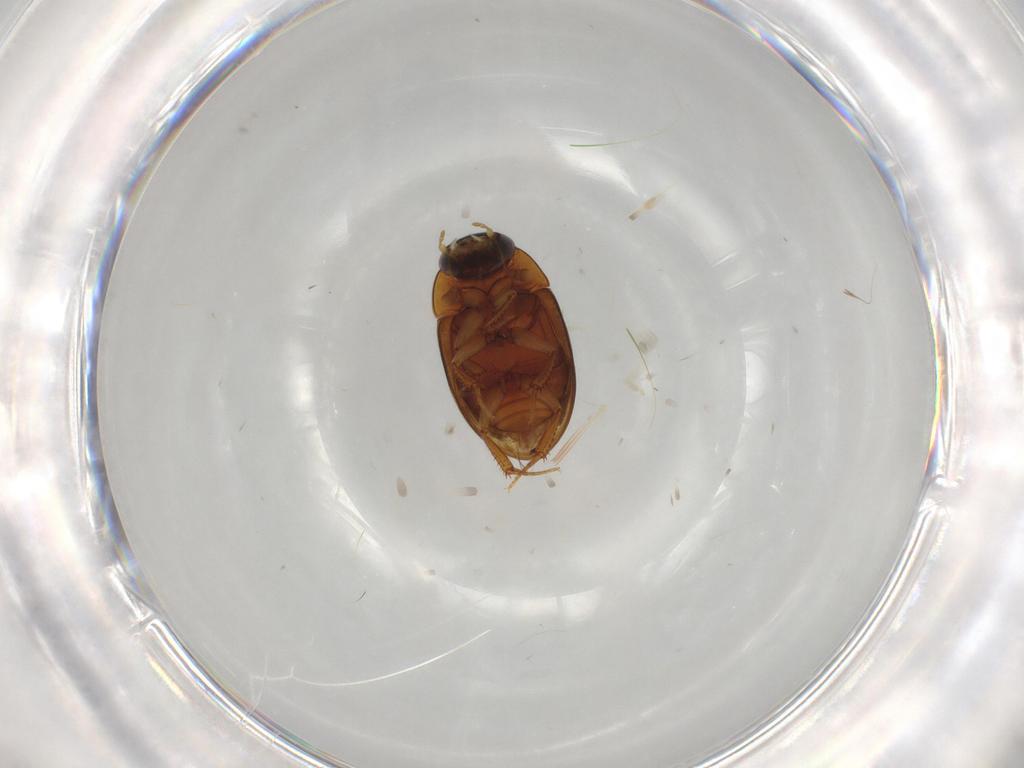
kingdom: Animalia
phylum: Arthropoda
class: Insecta
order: Coleoptera
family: Hydrophilidae
